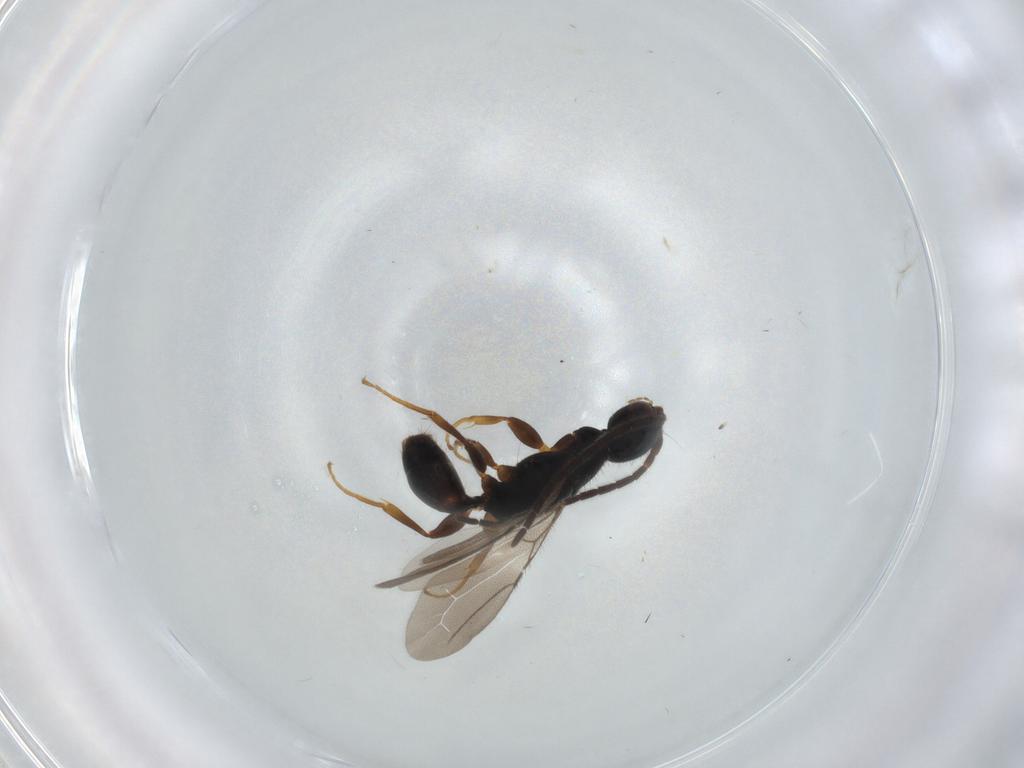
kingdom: Animalia
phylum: Arthropoda
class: Insecta
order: Hymenoptera
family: Bethylidae
